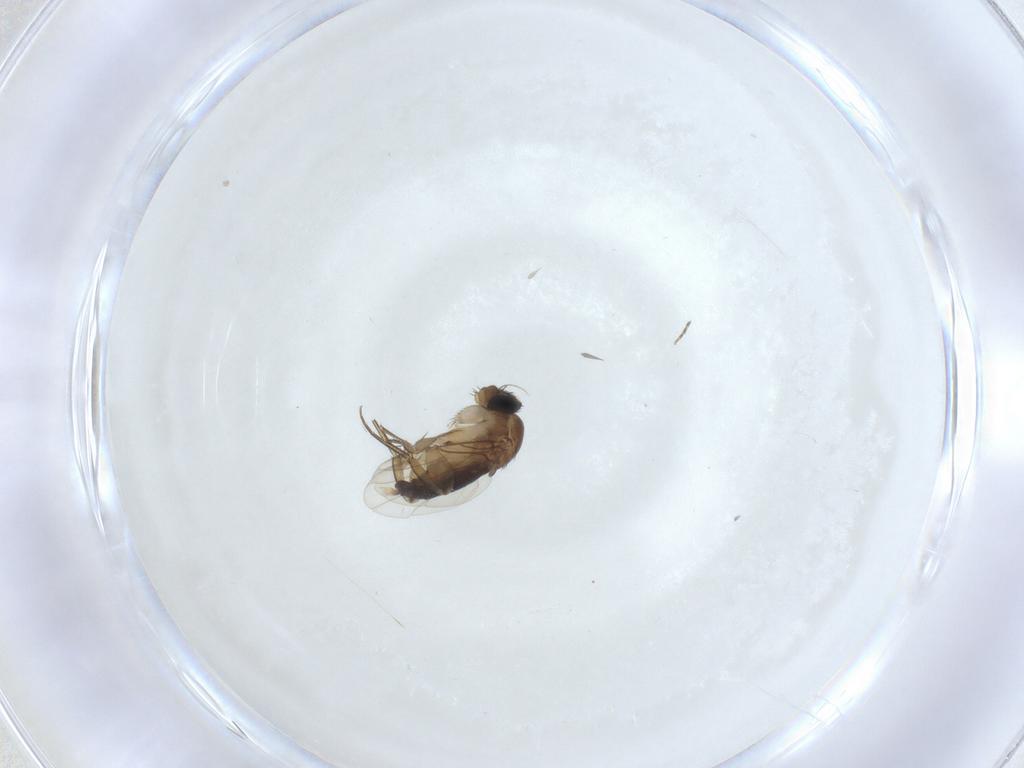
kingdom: Animalia
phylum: Arthropoda
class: Insecta
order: Diptera
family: Phoridae
